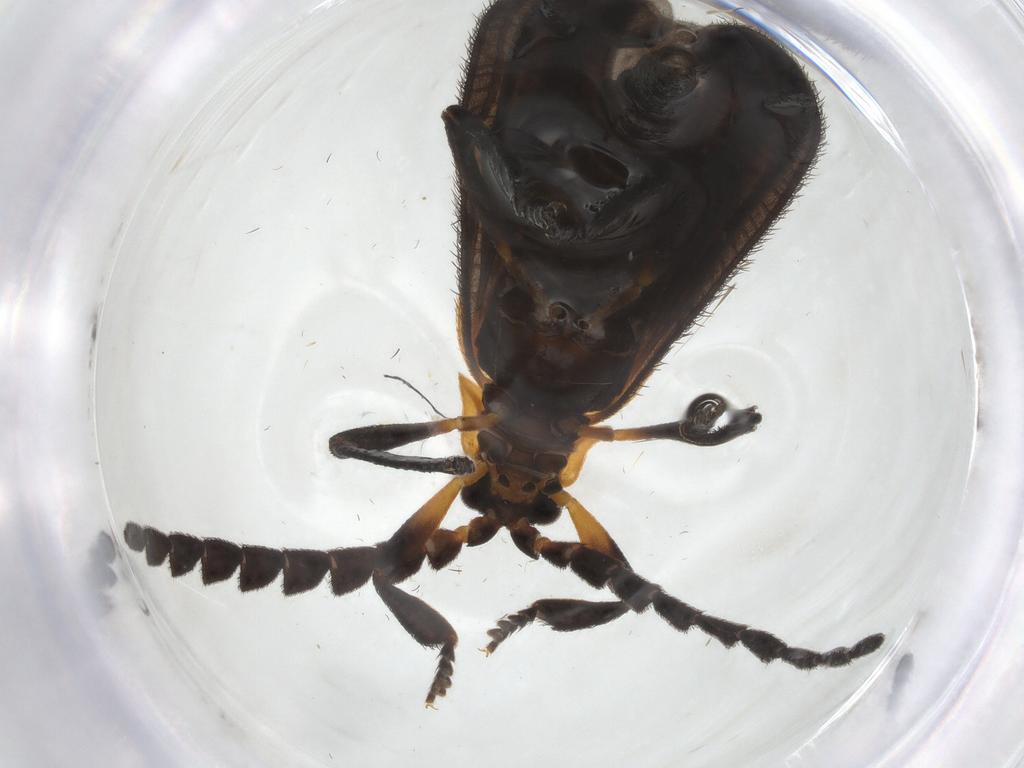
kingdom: Animalia
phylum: Arthropoda
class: Insecta
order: Coleoptera
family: Lycidae
